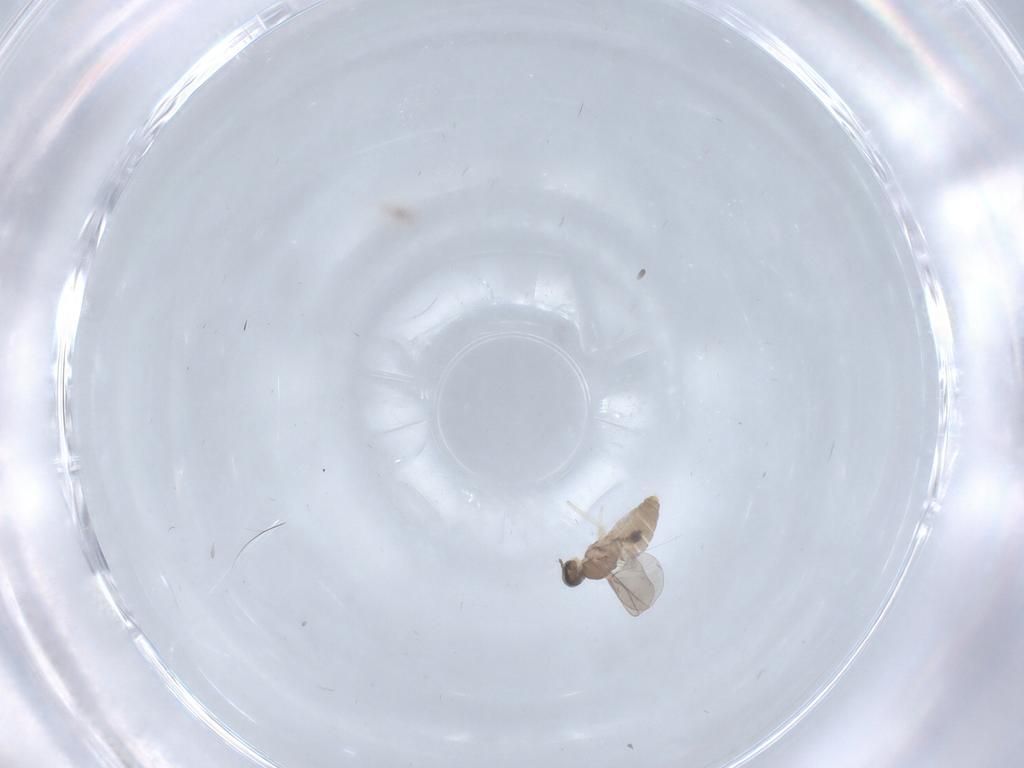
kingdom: Animalia
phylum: Arthropoda
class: Insecta
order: Diptera
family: Cecidomyiidae
